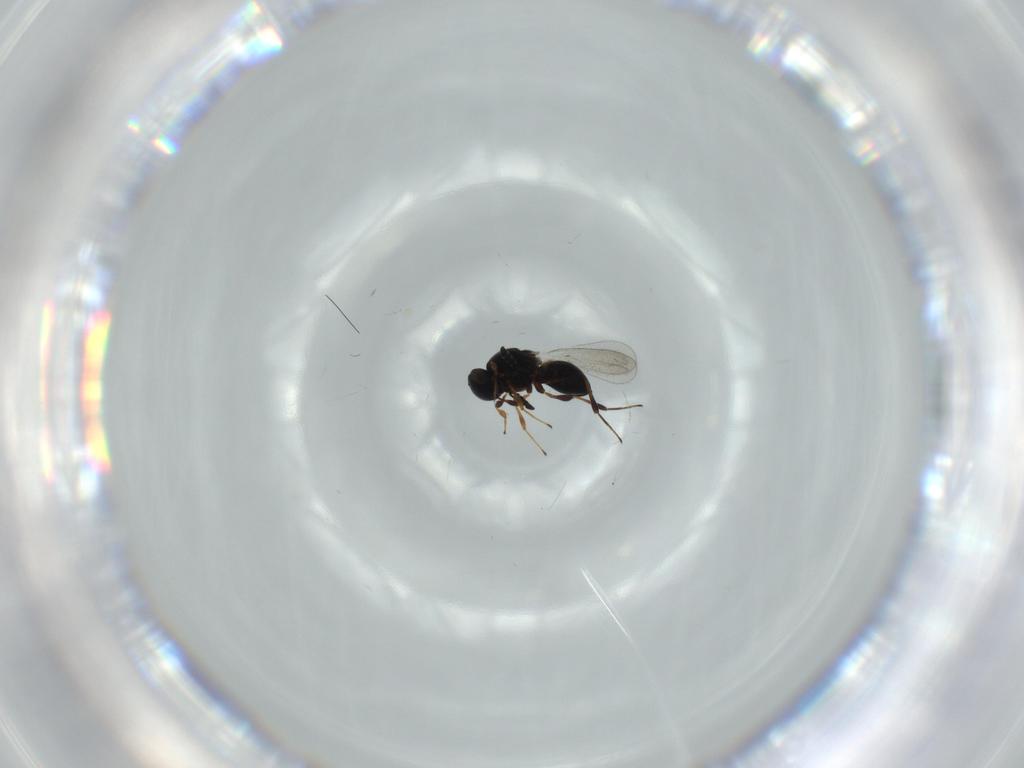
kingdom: Animalia
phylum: Arthropoda
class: Insecta
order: Hymenoptera
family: Platygastridae
